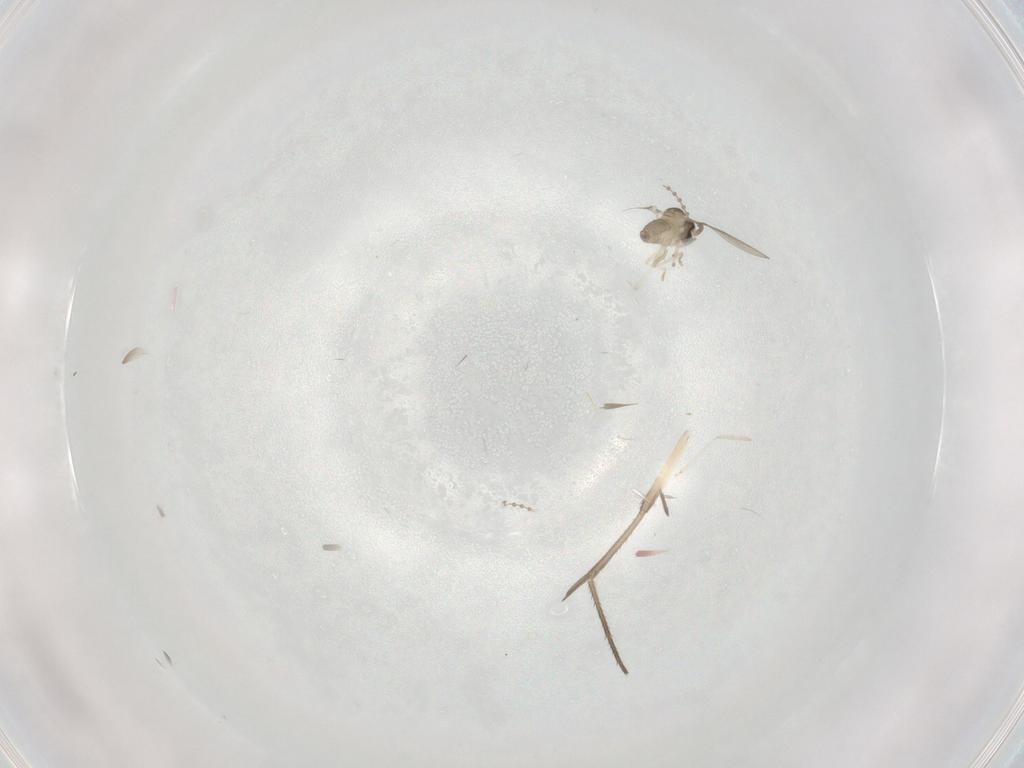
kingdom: Animalia
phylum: Arthropoda
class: Insecta
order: Diptera
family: Mycetophilidae
